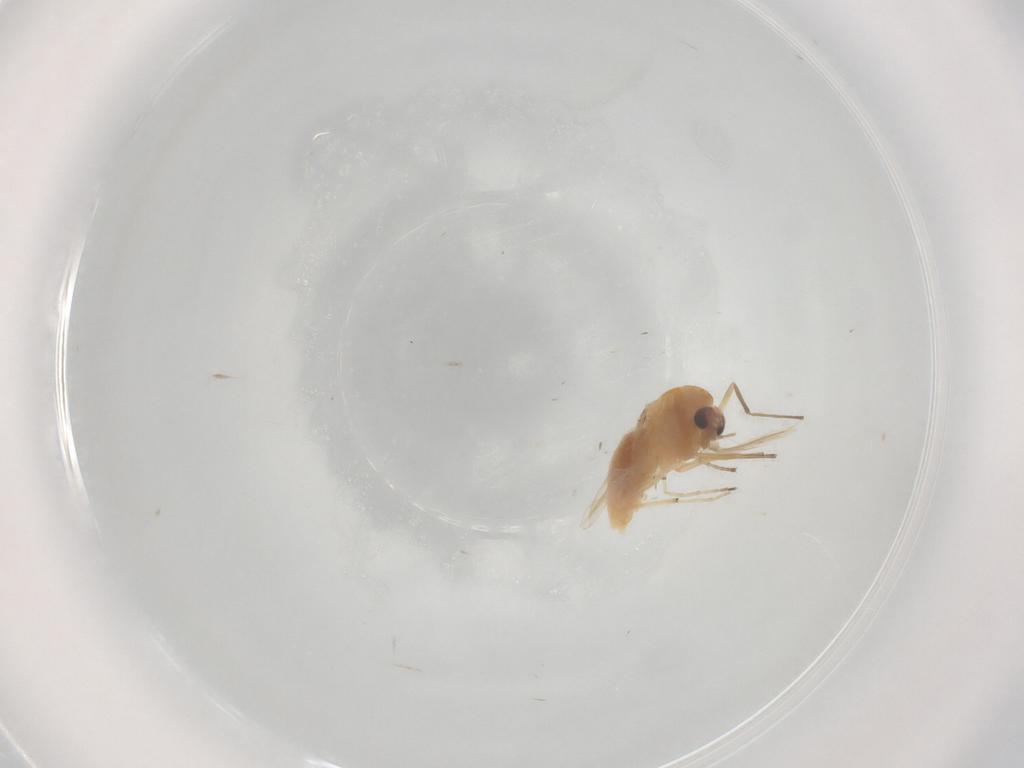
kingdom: Animalia
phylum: Arthropoda
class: Insecta
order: Diptera
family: Chironomidae
